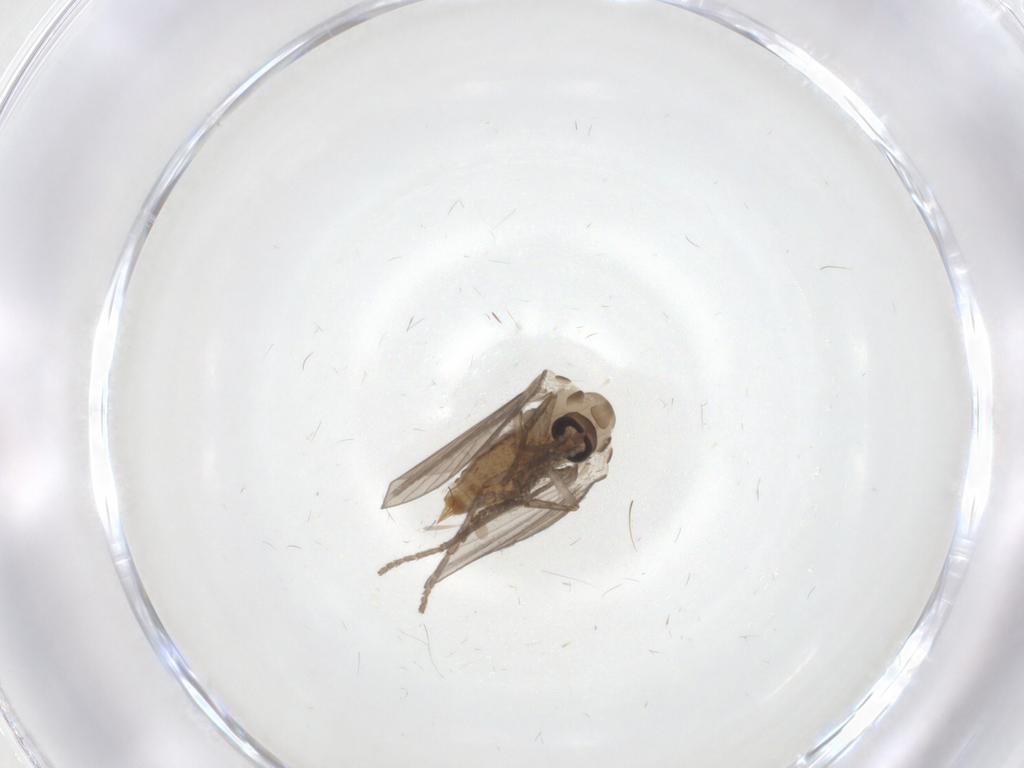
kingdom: Animalia
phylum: Arthropoda
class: Insecta
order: Diptera
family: Psychodidae
